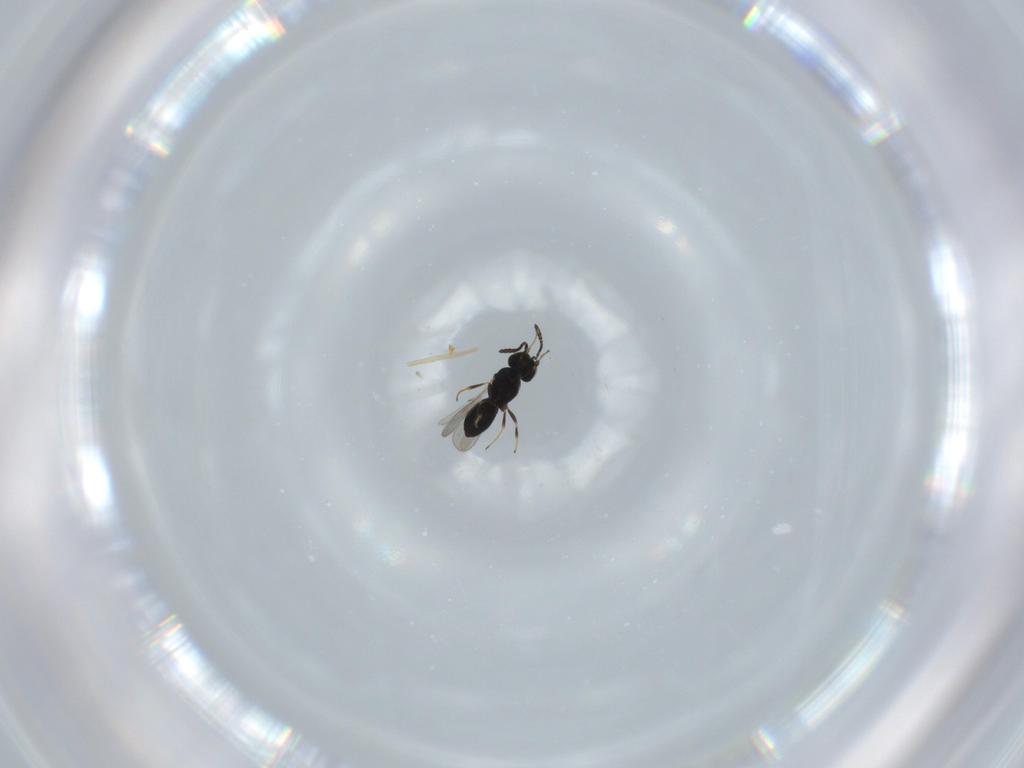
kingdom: Animalia
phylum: Arthropoda
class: Insecta
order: Hymenoptera
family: Scelionidae
